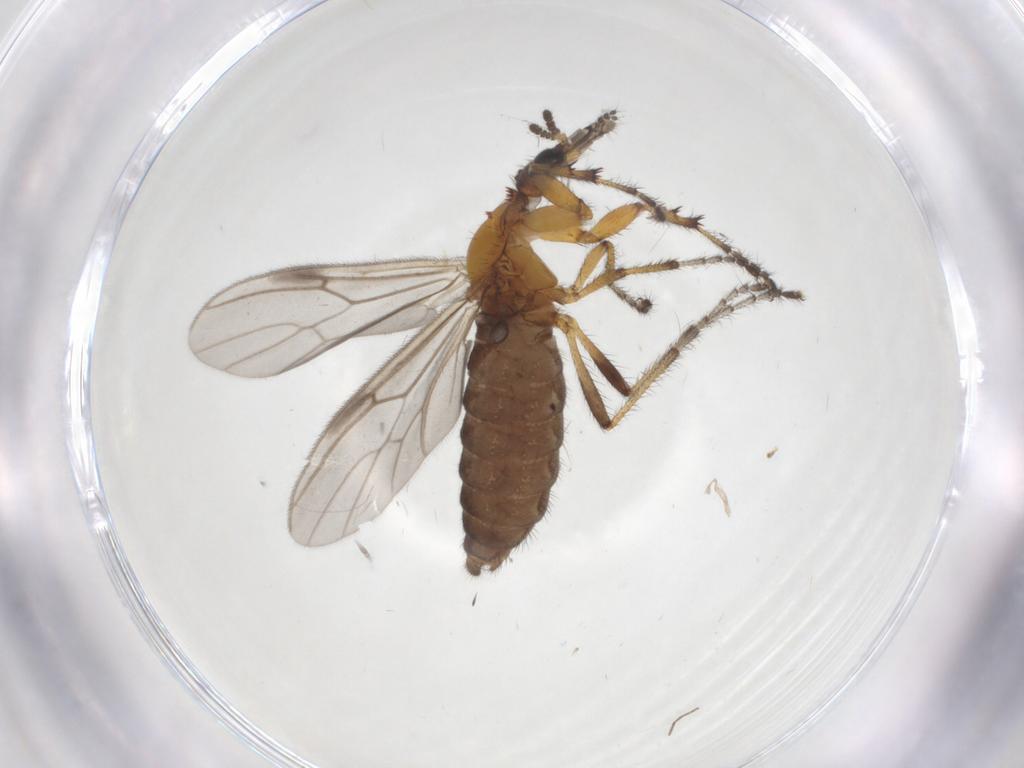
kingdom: Animalia
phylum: Arthropoda
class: Insecta
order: Diptera
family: Bibionidae
